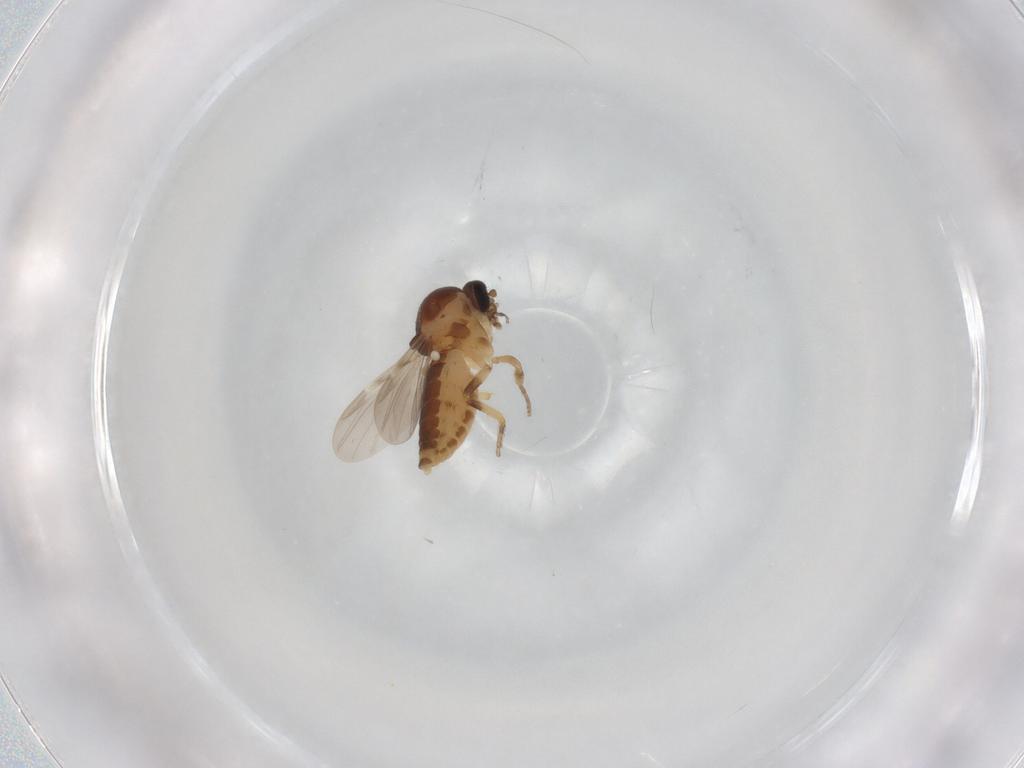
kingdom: Animalia
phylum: Arthropoda
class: Insecta
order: Diptera
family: Ceratopogonidae
